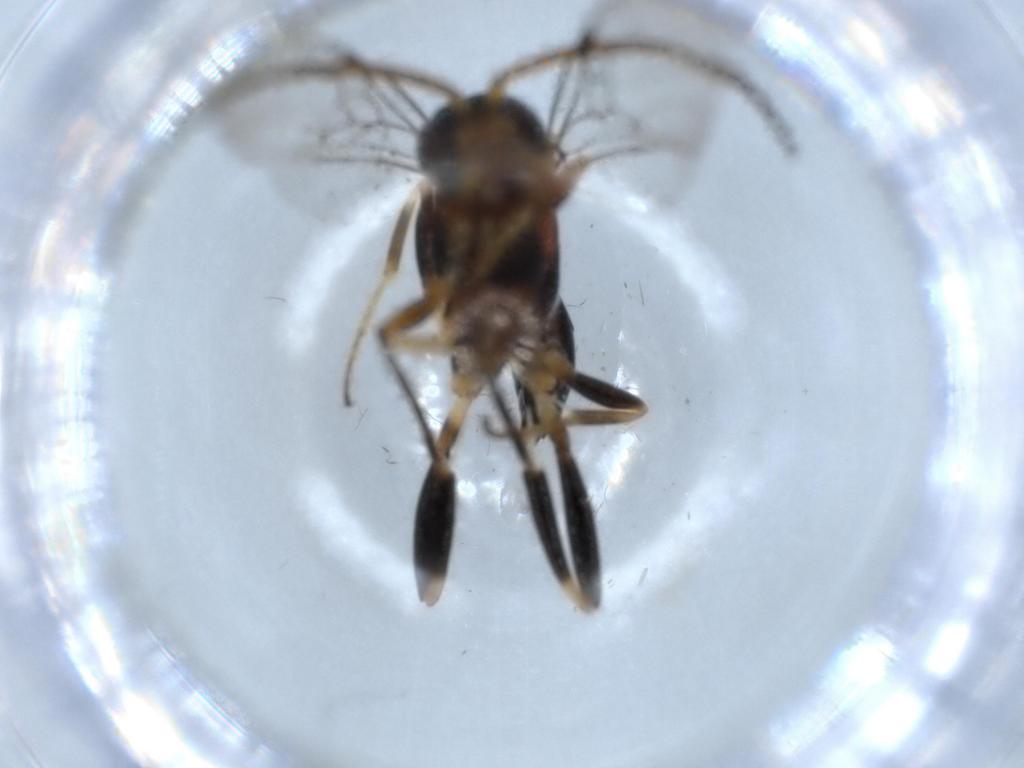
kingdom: Animalia
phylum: Arthropoda
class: Insecta
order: Hymenoptera
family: Evaniidae
